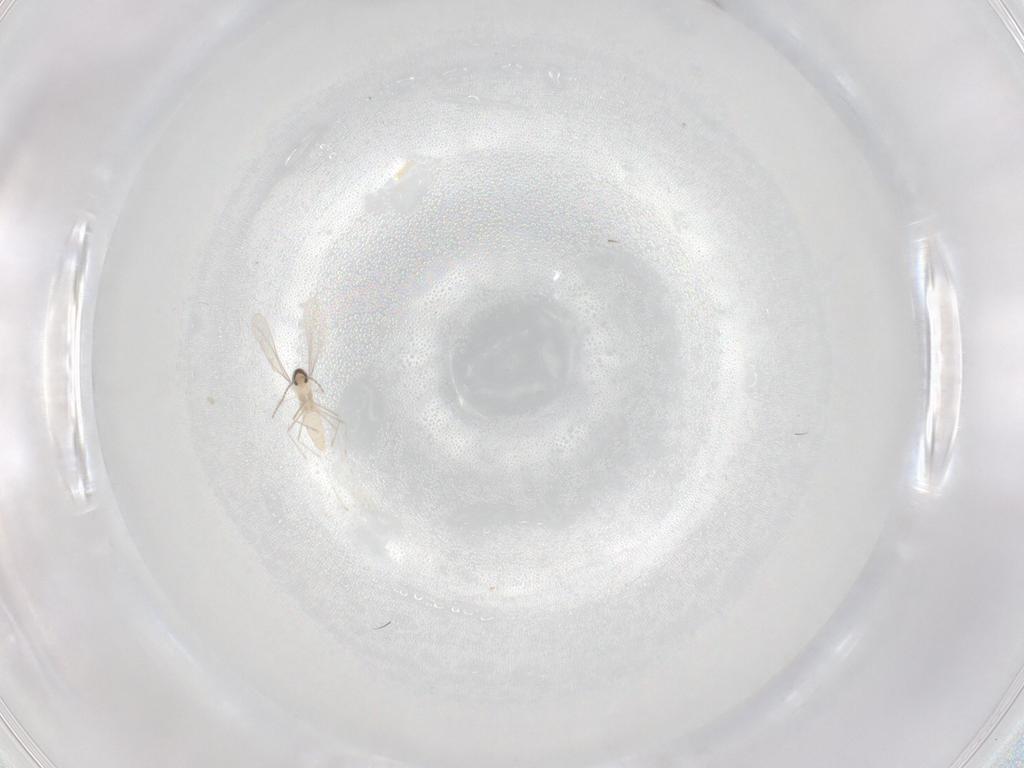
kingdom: Animalia
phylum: Arthropoda
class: Insecta
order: Diptera
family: Cecidomyiidae
